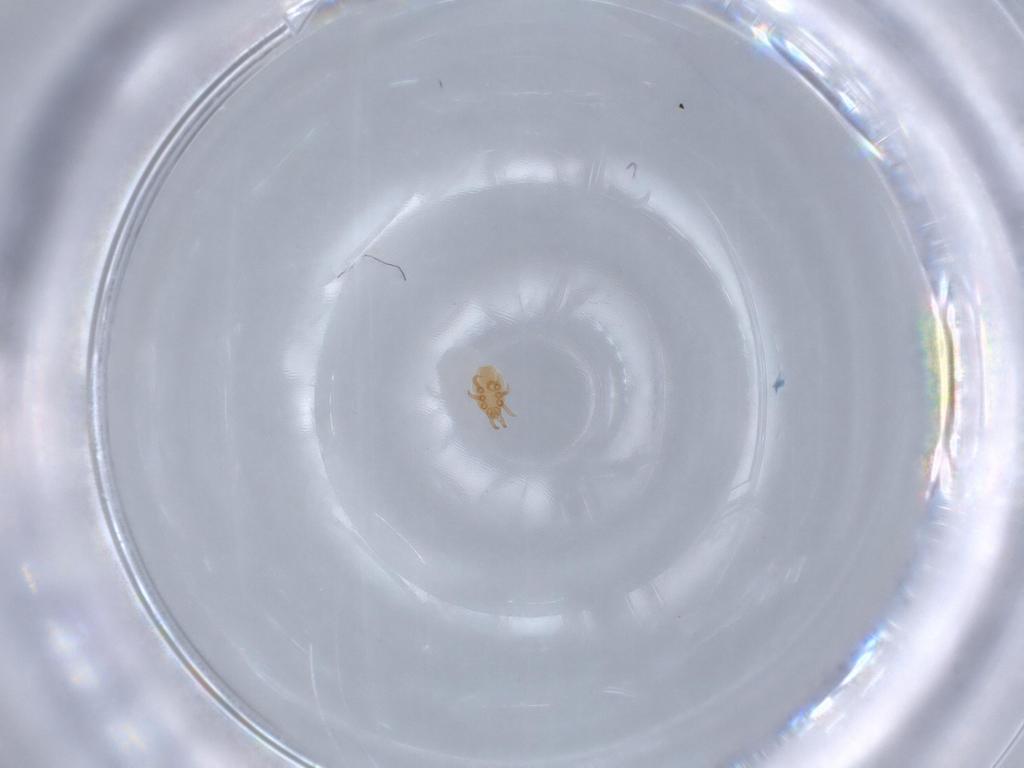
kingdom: Animalia
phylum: Arthropoda
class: Arachnida
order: Mesostigmata
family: Dinychidae
